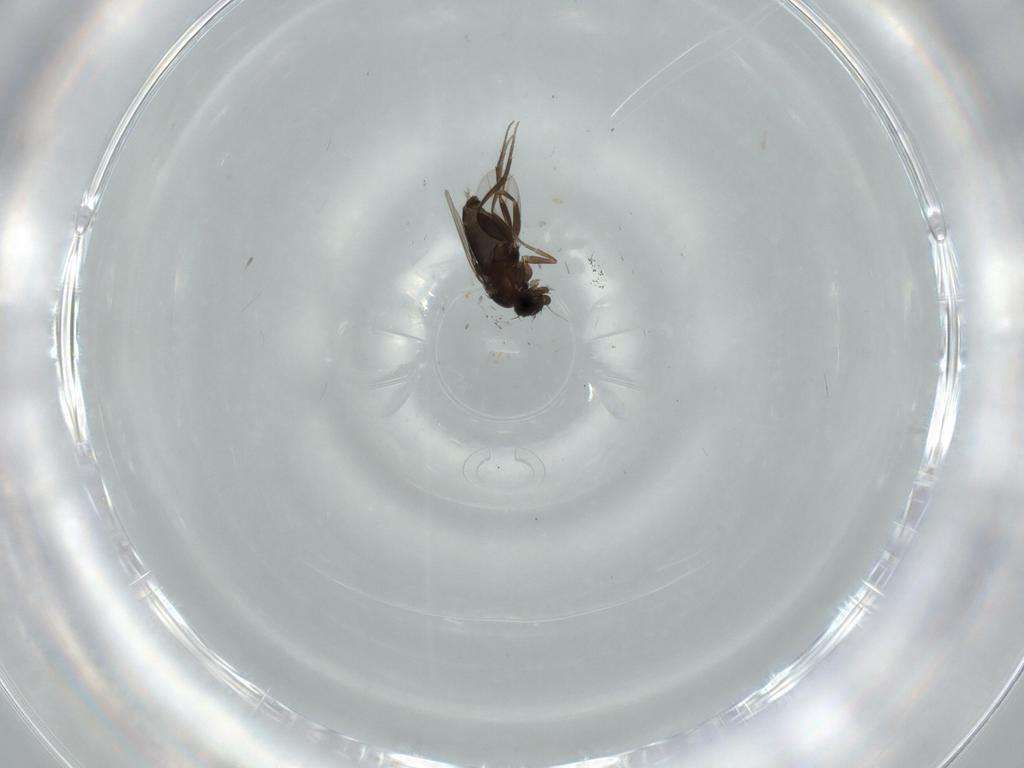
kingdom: Animalia
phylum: Arthropoda
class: Insecta
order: Diptera
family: Phoridae
